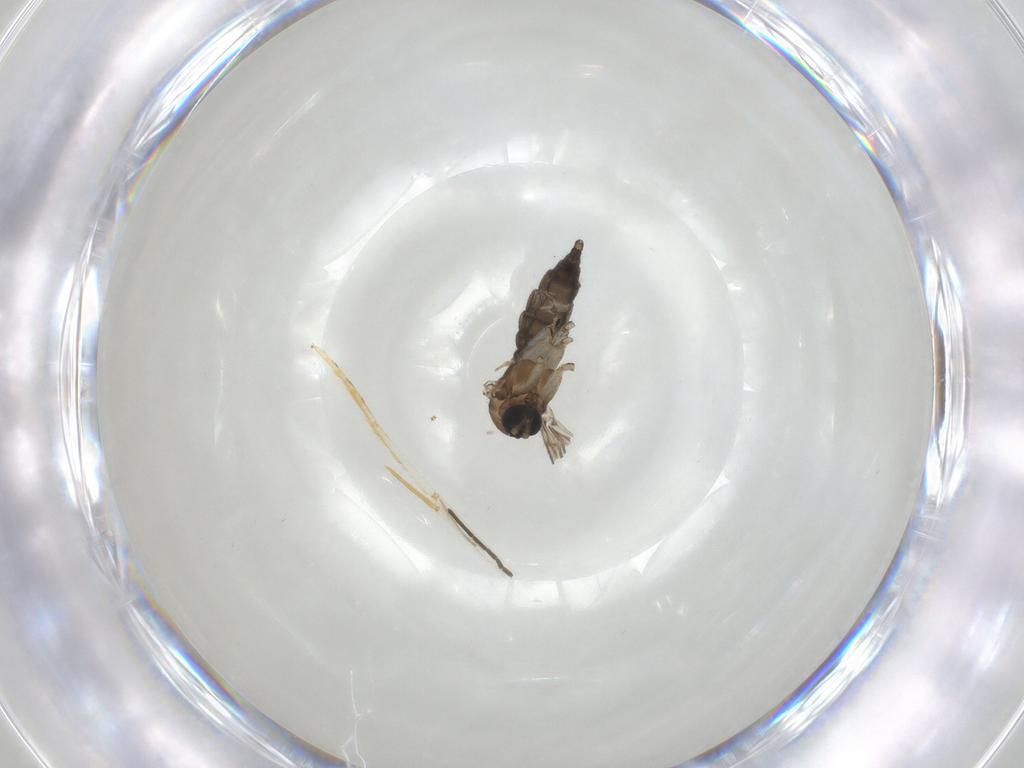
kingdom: Animalia
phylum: Arthropoda
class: Insecta
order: Diptera
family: Sciaridae
